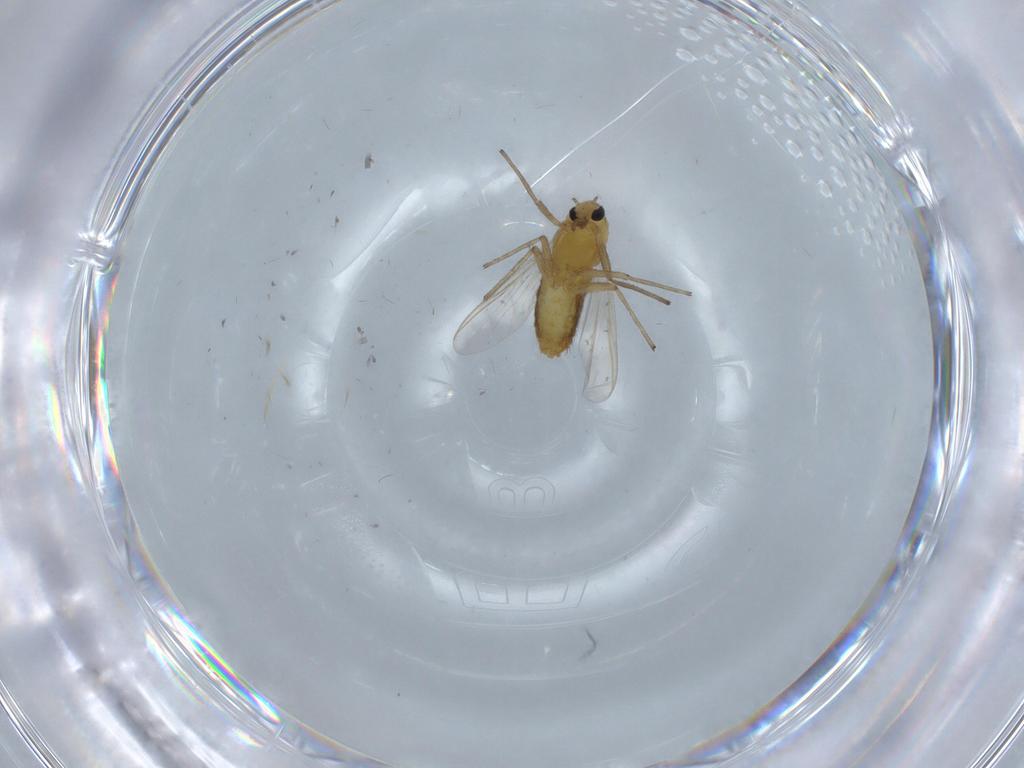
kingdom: Animalia
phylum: Arthropoda
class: Insecta
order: Diptera
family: Chironomidae
